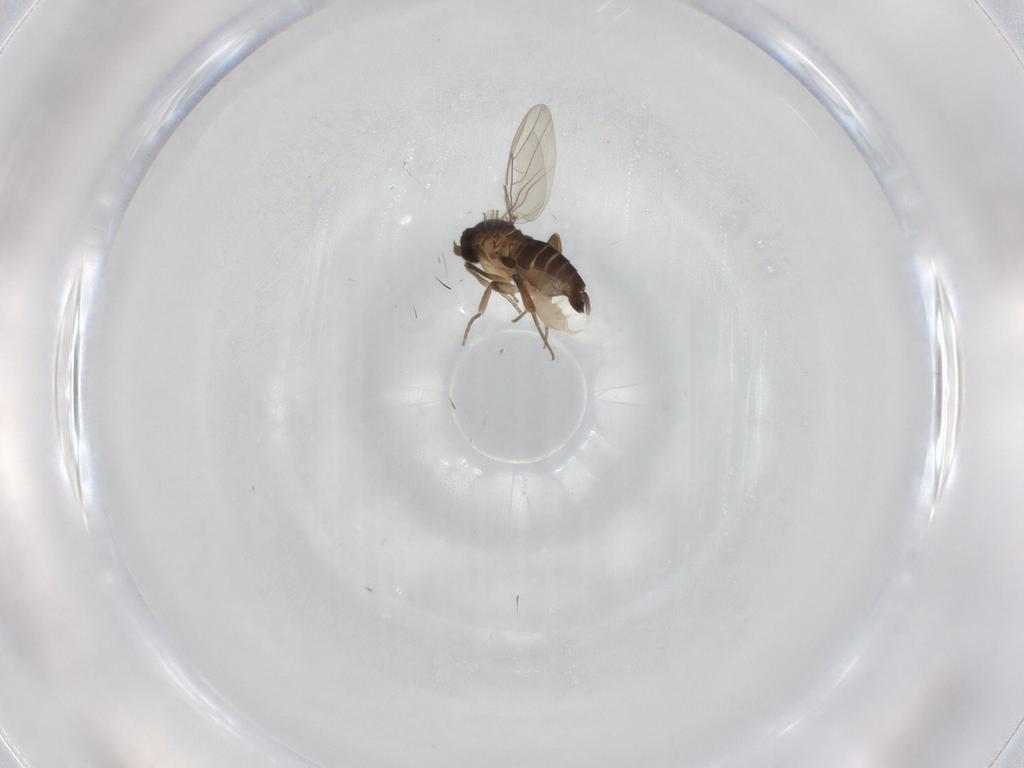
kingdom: Animalia
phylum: Arthropoda
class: Insecta
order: Diptera
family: Phoridae
